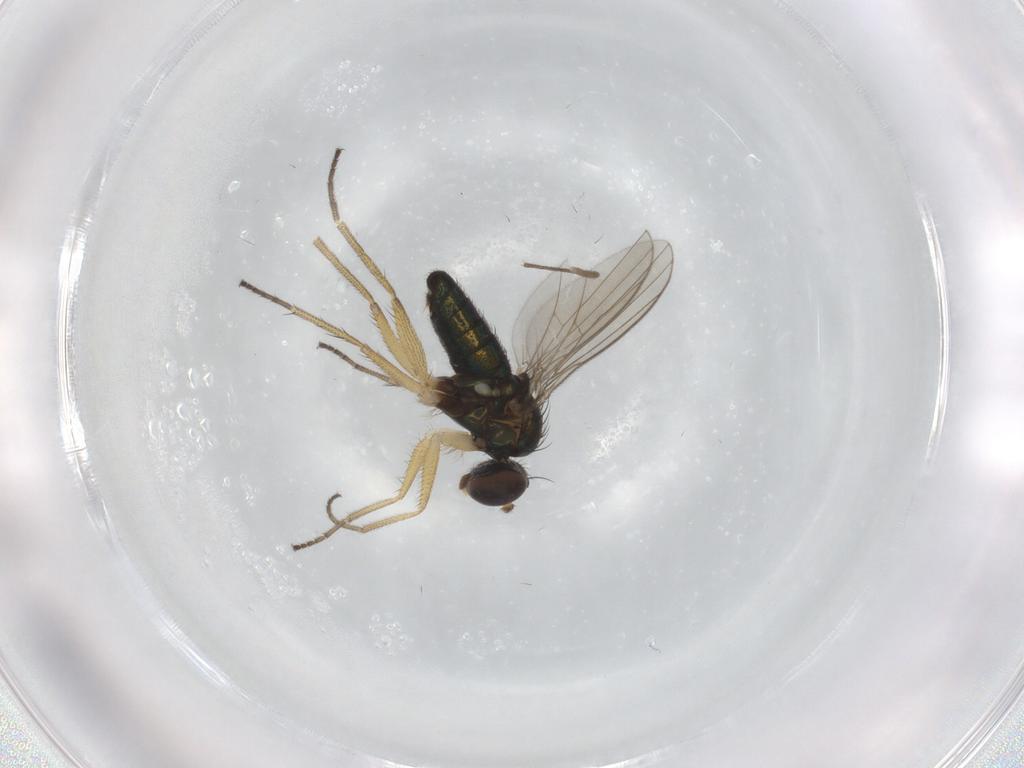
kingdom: Animalia
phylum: Arthropoda
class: Insecta
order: Diptera
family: Chironomidae
